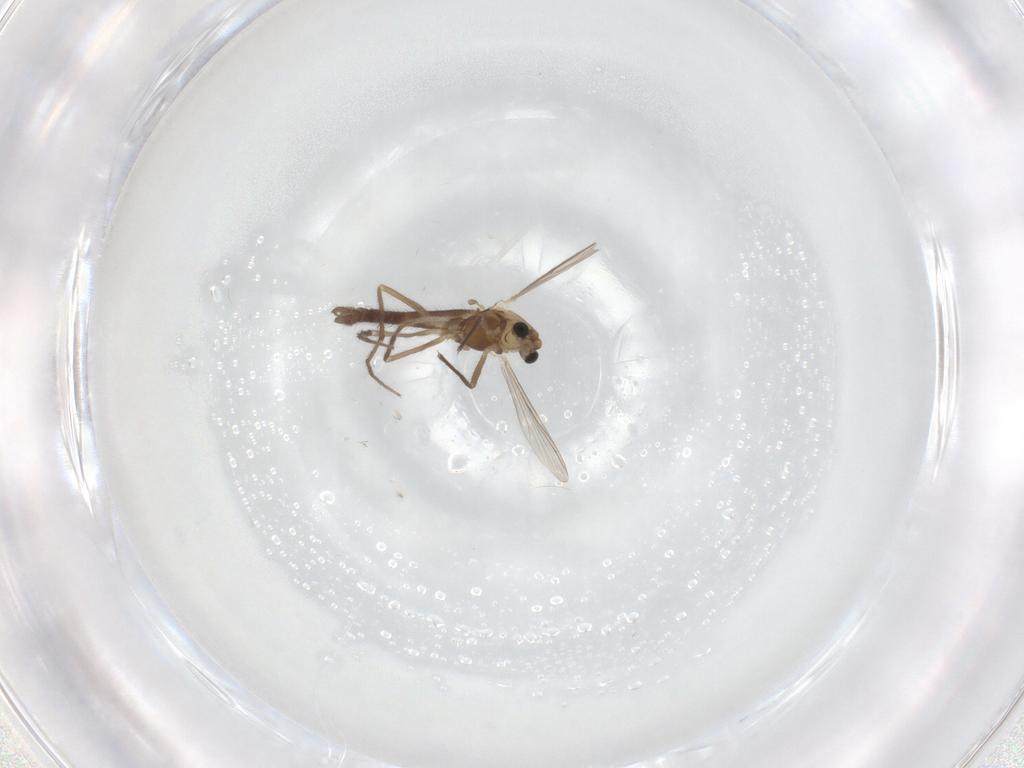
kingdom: Animalia
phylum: Arthropoda
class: Insecta
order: Diptera
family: Chironomidae
